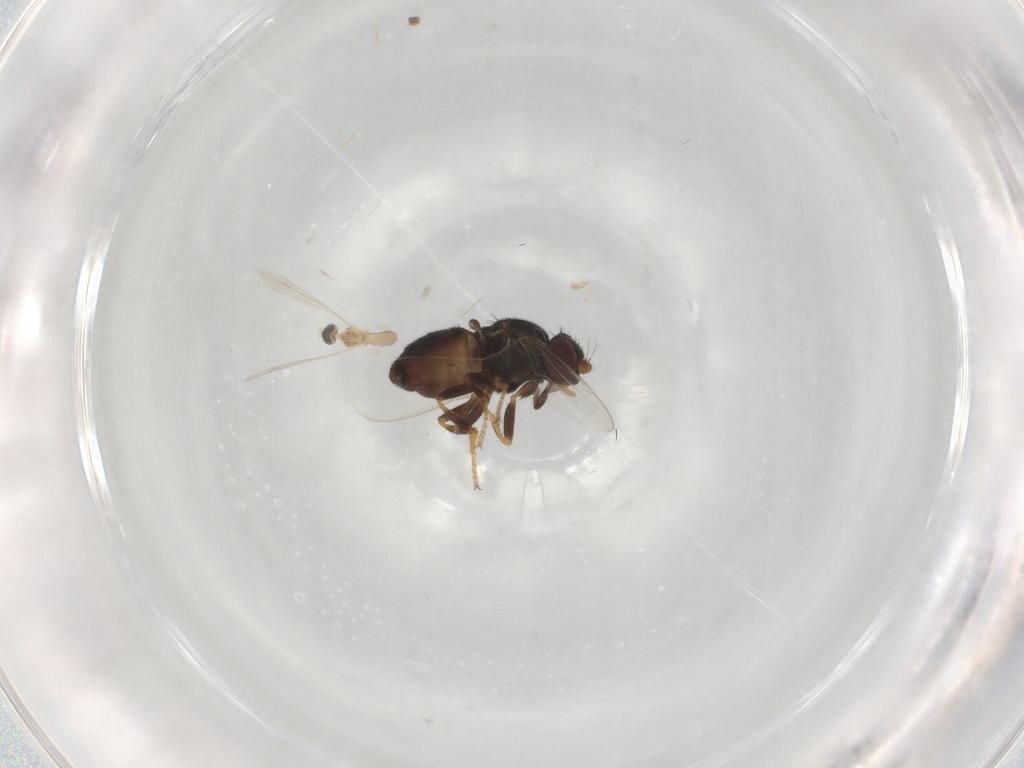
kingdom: Animalia
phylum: Arthropoda
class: Insecta
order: Diptera
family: Chloropidae
